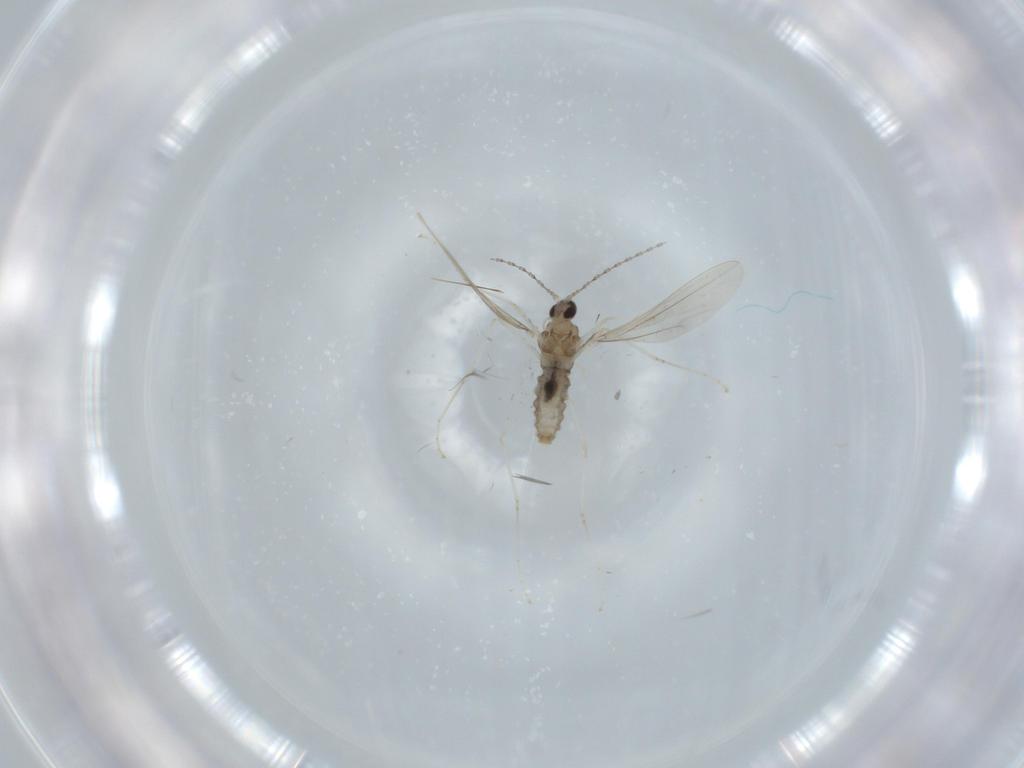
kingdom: Animalia
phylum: Arthropoda
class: Insecta
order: Diptera
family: Cecidomyiidae
